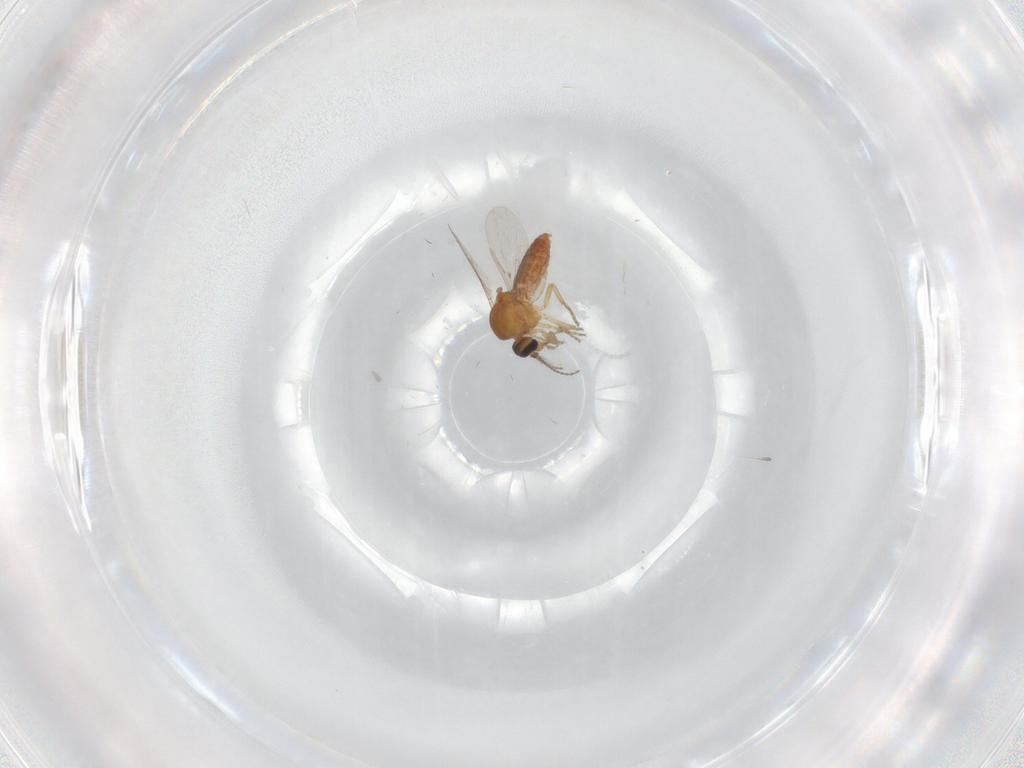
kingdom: Animalia
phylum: Arthropoda
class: Insecta
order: Diptera
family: Ceratopogonidae
